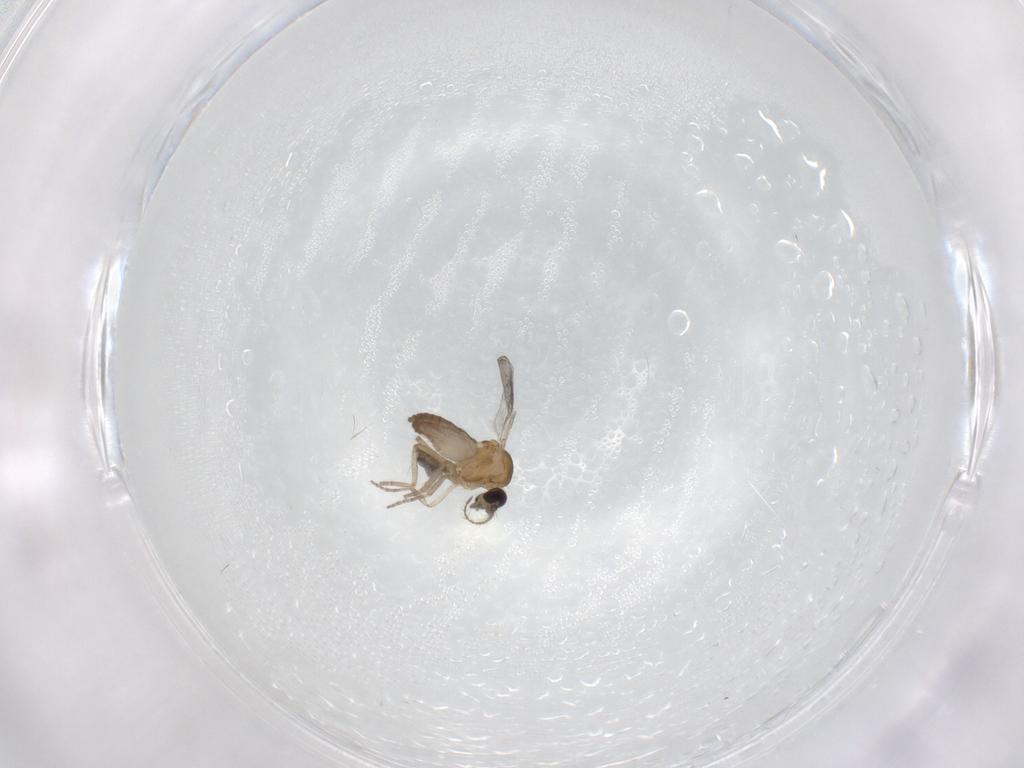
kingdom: Animalia
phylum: Arthropoda
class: Insecta
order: Diptera
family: Ceratopogonidae
